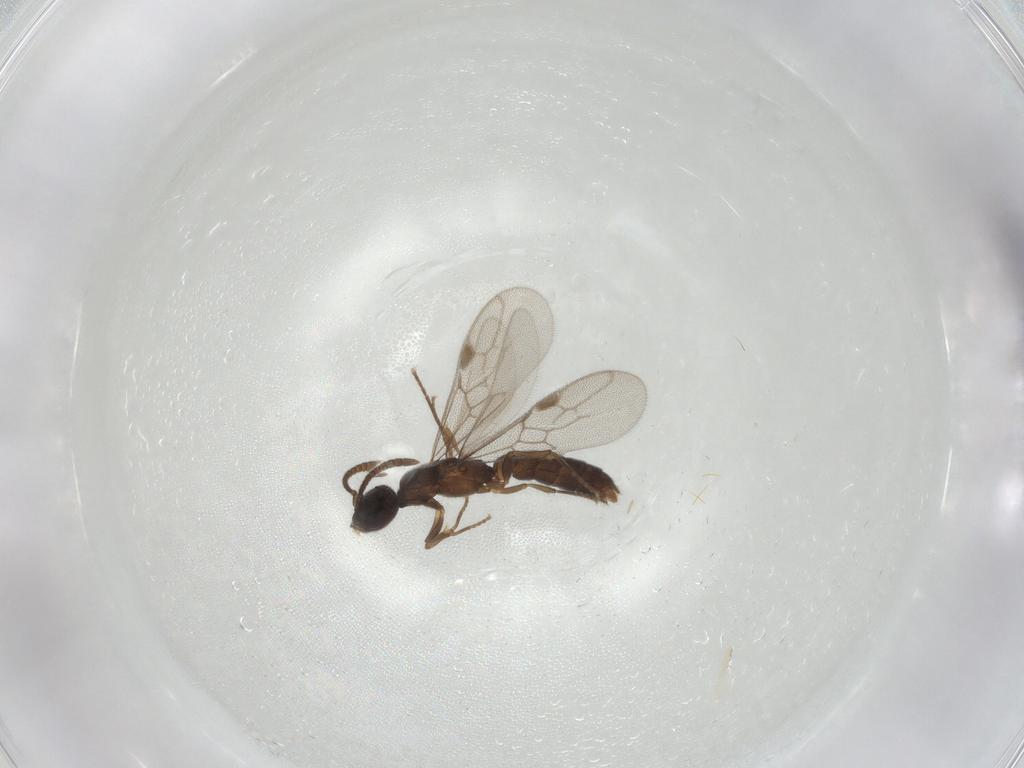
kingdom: Animalia
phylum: Arthropoda
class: Insecta
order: Hymenoptera
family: Formicidae
